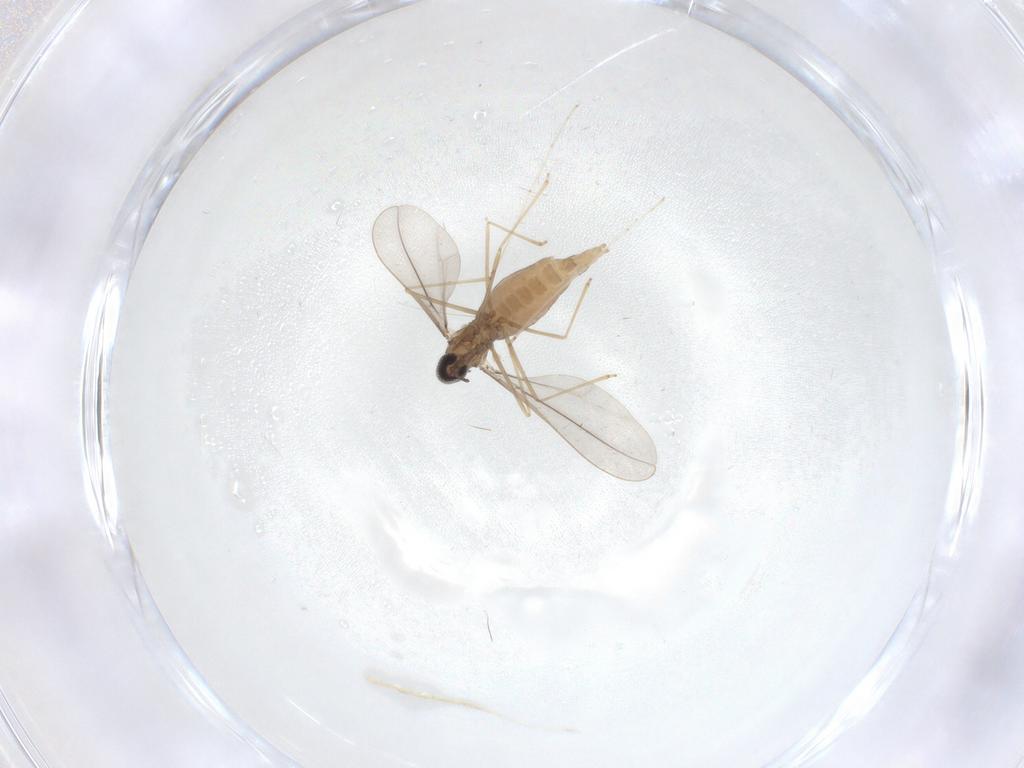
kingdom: Animalia
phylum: Arthropoda
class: Insecta
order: Diptera
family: Cecidomyiidae
